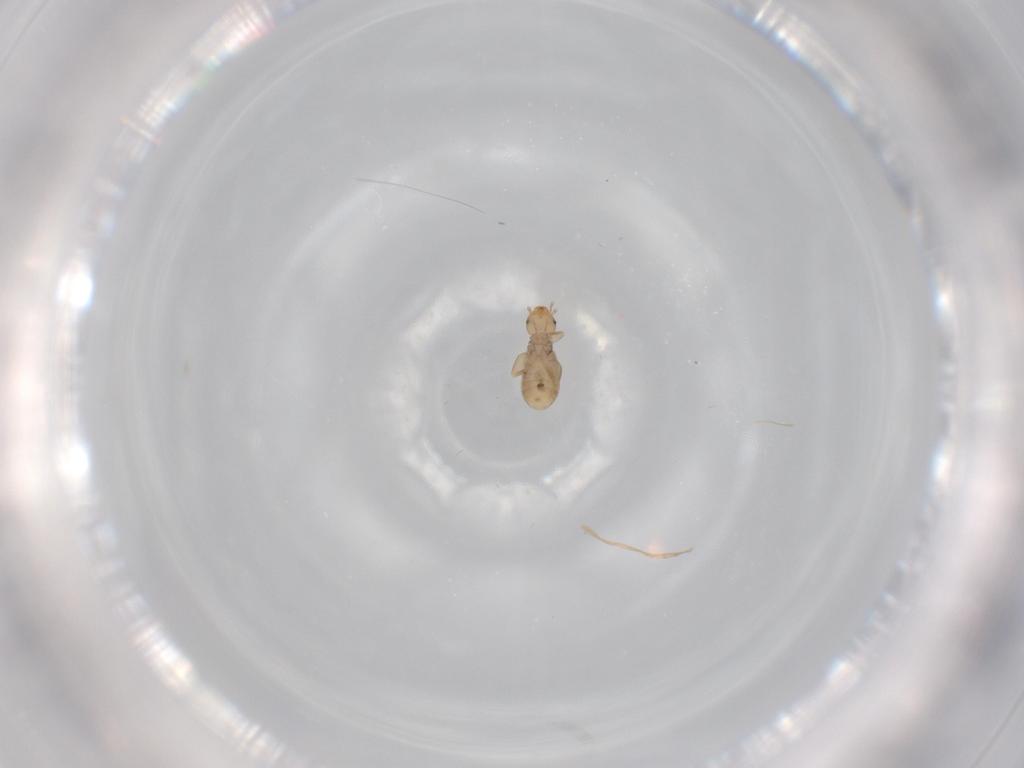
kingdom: Animalia
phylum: Arthropoda
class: Insecta
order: Psocodea
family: Liposcelididae
